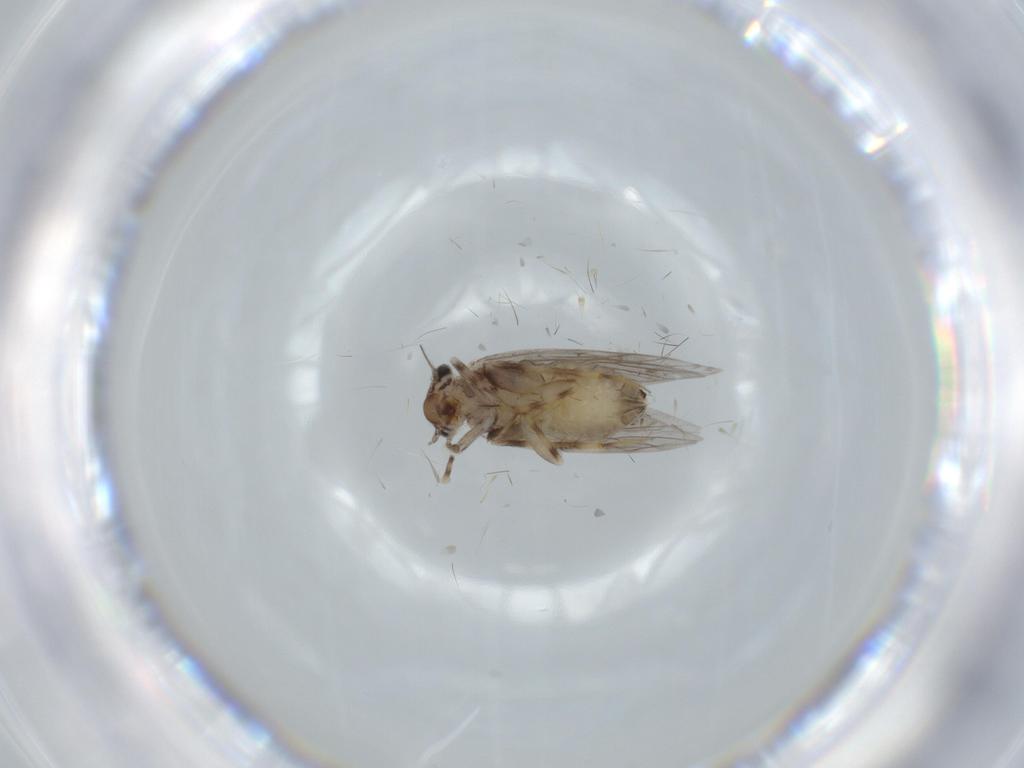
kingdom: Animalia
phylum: Arthropoda
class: Insecta
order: Psocodea
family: Lepidopsocidae
